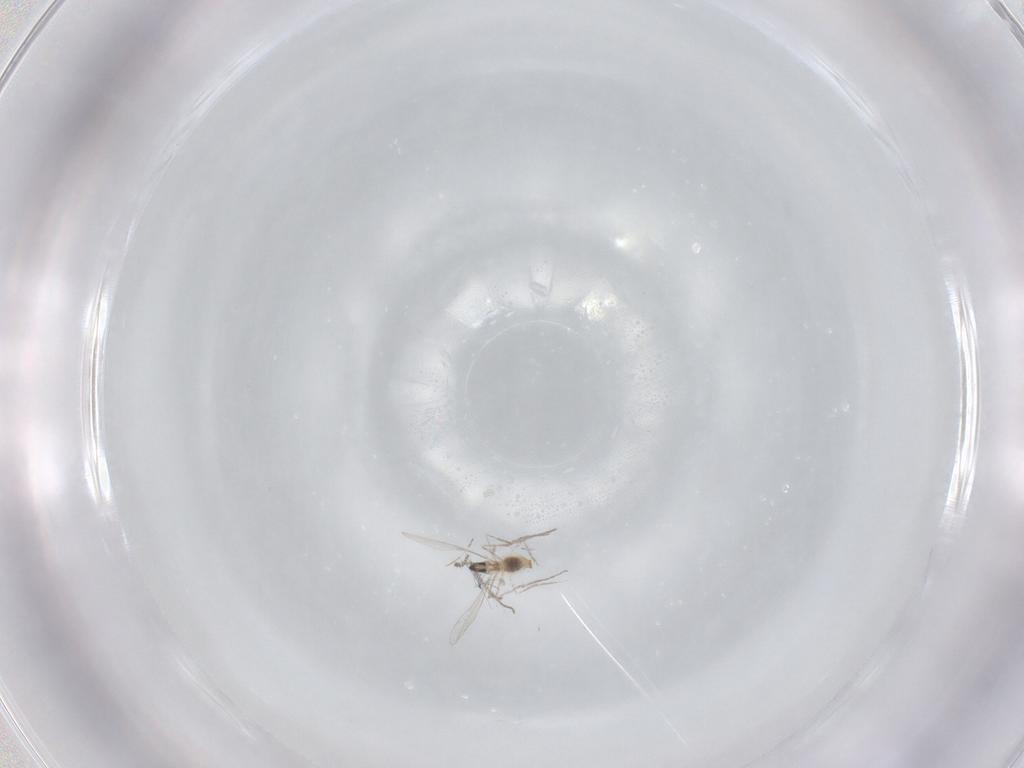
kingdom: Animalia
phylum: Arthropoda
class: Insecta
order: Diptera
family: Cecidomyiidae
